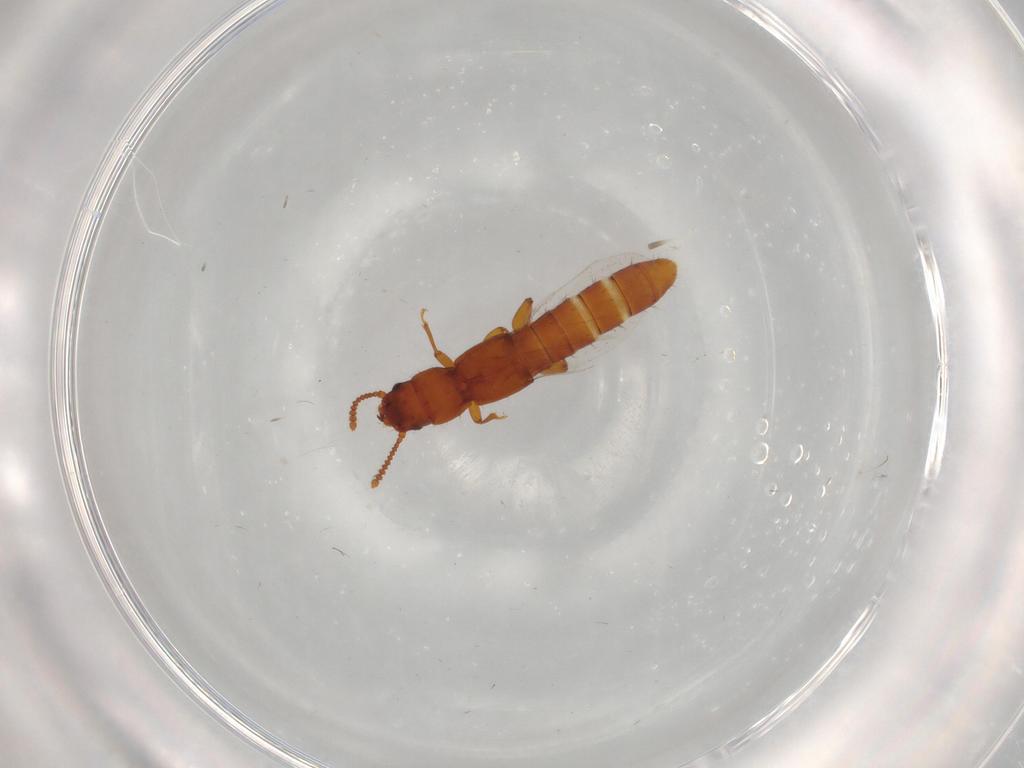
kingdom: Animalia
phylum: Arthropoda
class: Insecta
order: Coleoptera
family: Staphylinidae
